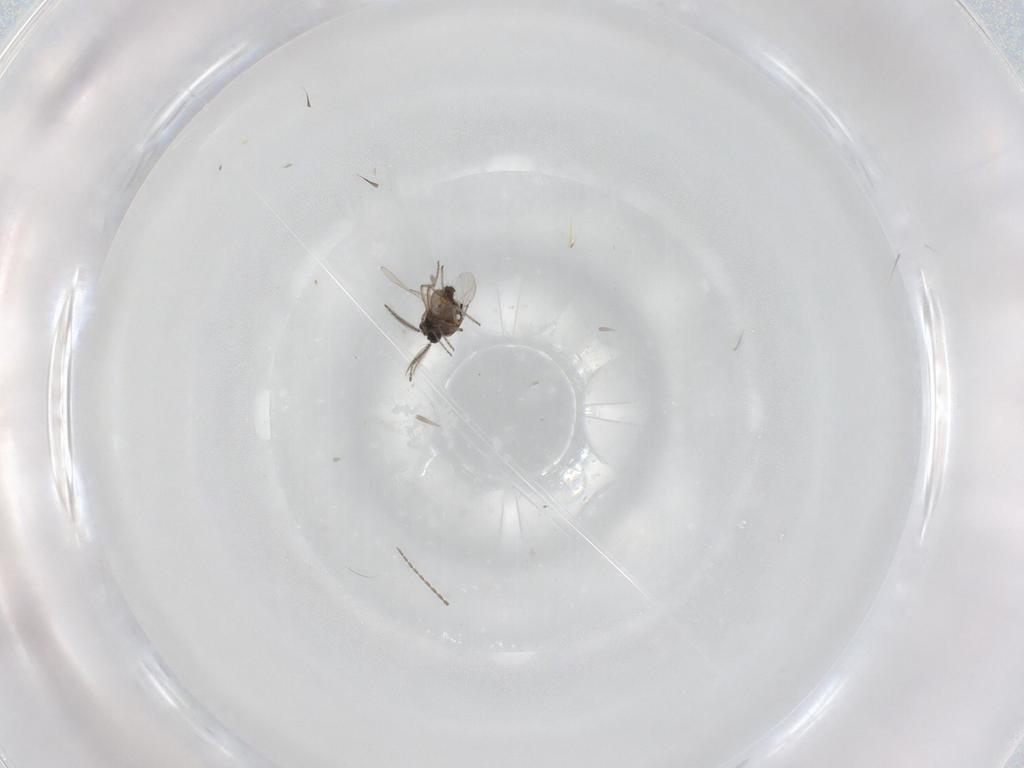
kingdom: Animalia
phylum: Arthropoda
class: Insecta
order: Diptera
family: Ceratopogonidae
